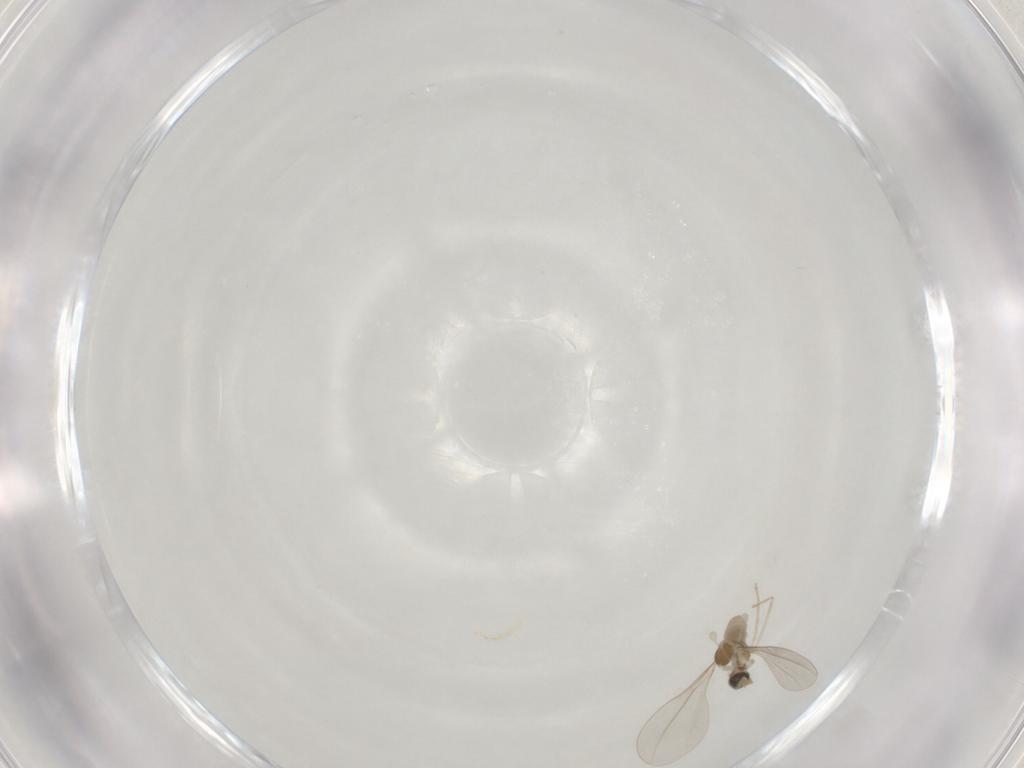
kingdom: Animalia
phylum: Arthropoda
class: Insecta
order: Diptera
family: Cecidomyiidae
